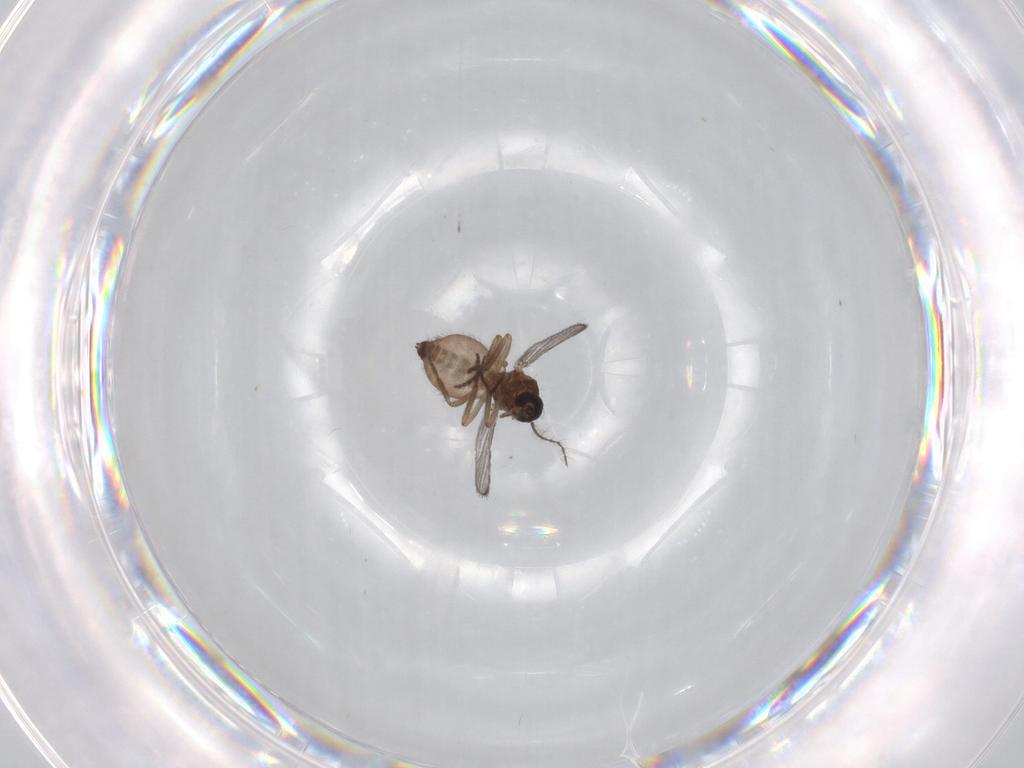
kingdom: Animalia
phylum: Arthropoda
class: Insecta
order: Diptera
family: Ceratopogonidae
